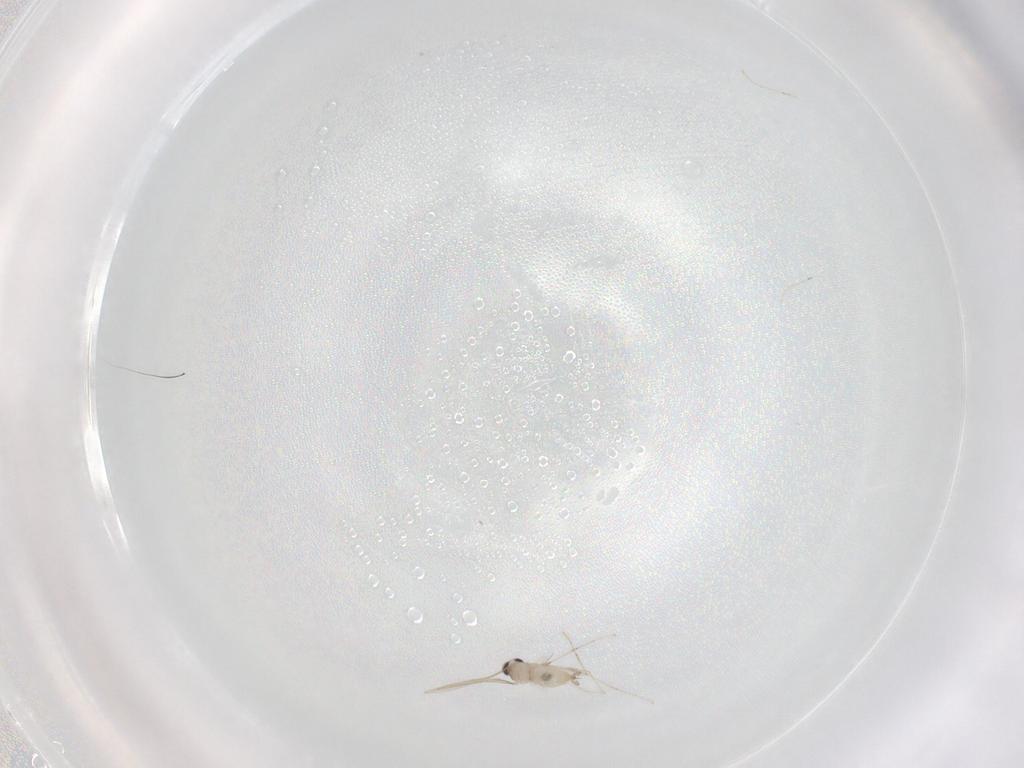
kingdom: Animalia
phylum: Arthropoda
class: Insecta
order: Diptera
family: Cecidomyiidae
